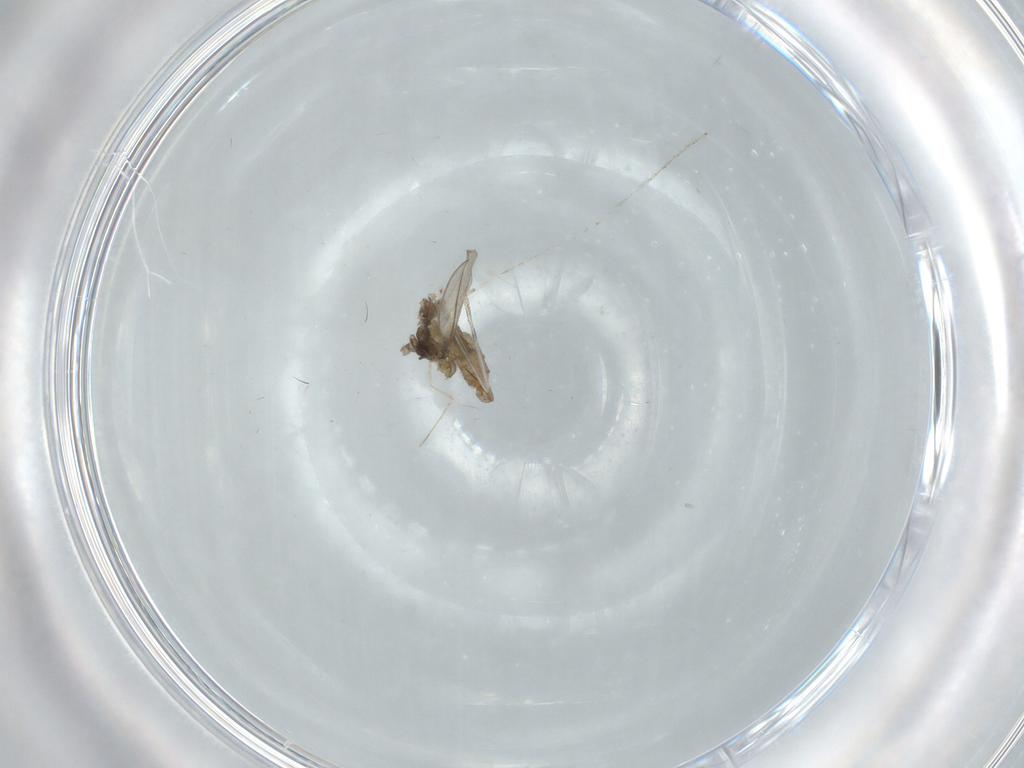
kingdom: Animalia
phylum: Arthropoda
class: Insecta
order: Diptera
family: Cecidomyiidae
